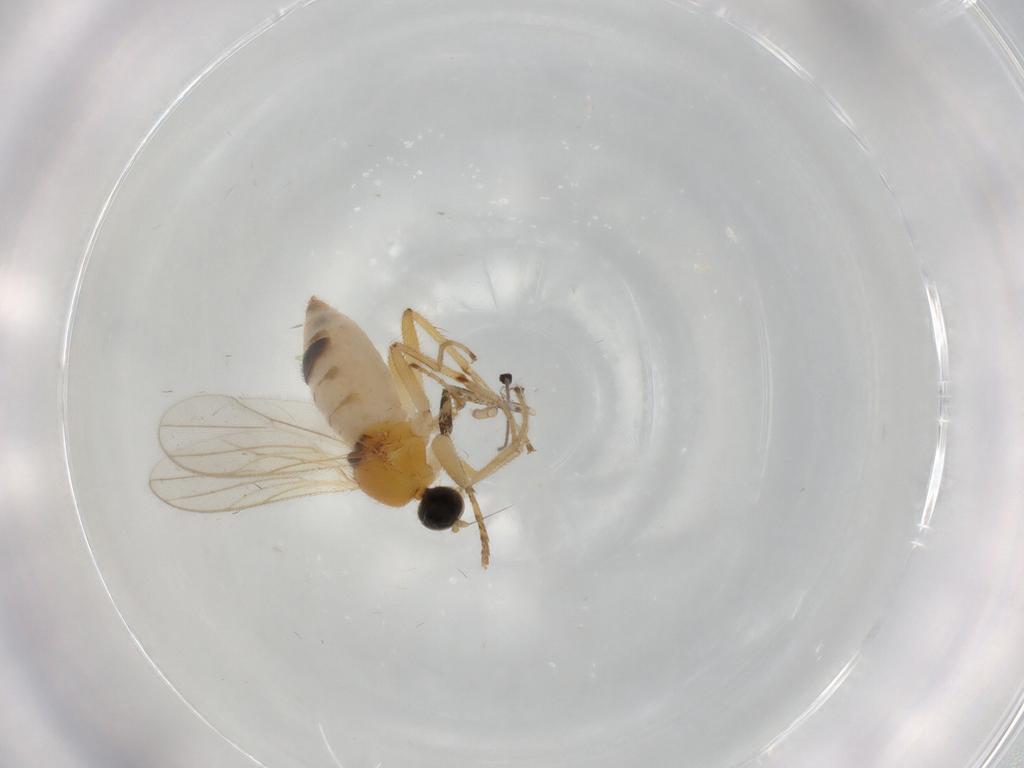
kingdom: Animalia
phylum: Arthropoda
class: Insecta
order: Diptera
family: Hybotidae
